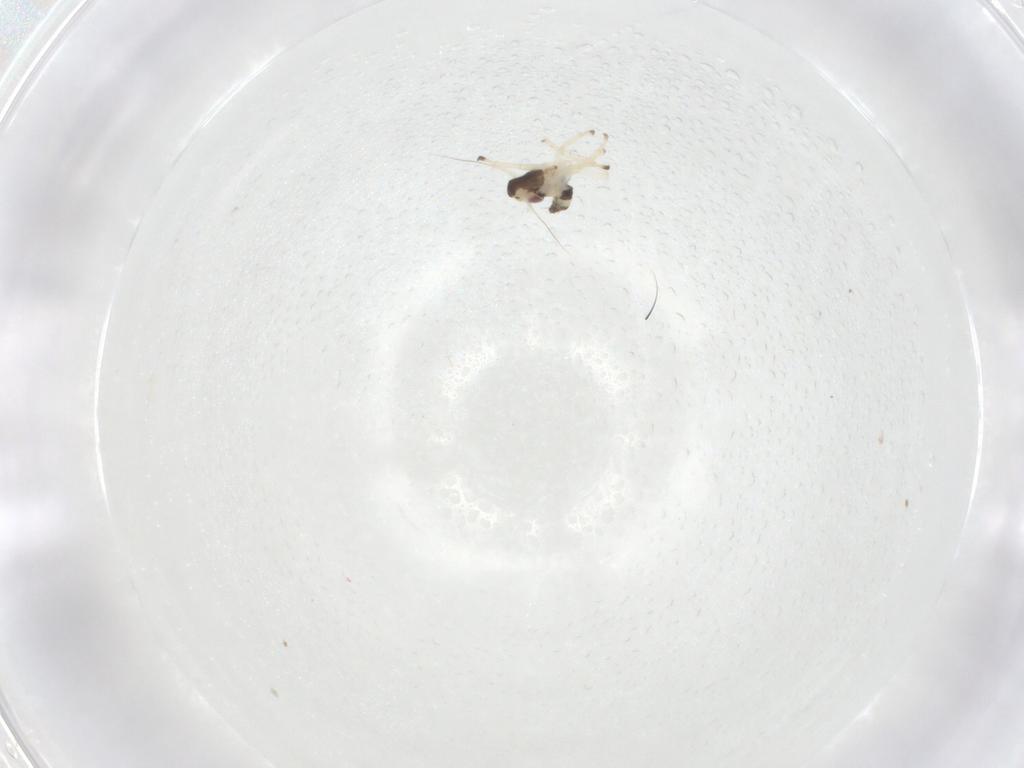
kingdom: Animalia
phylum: Arthropoda
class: Insecta
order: Hemiptera
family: Cicadellidae
